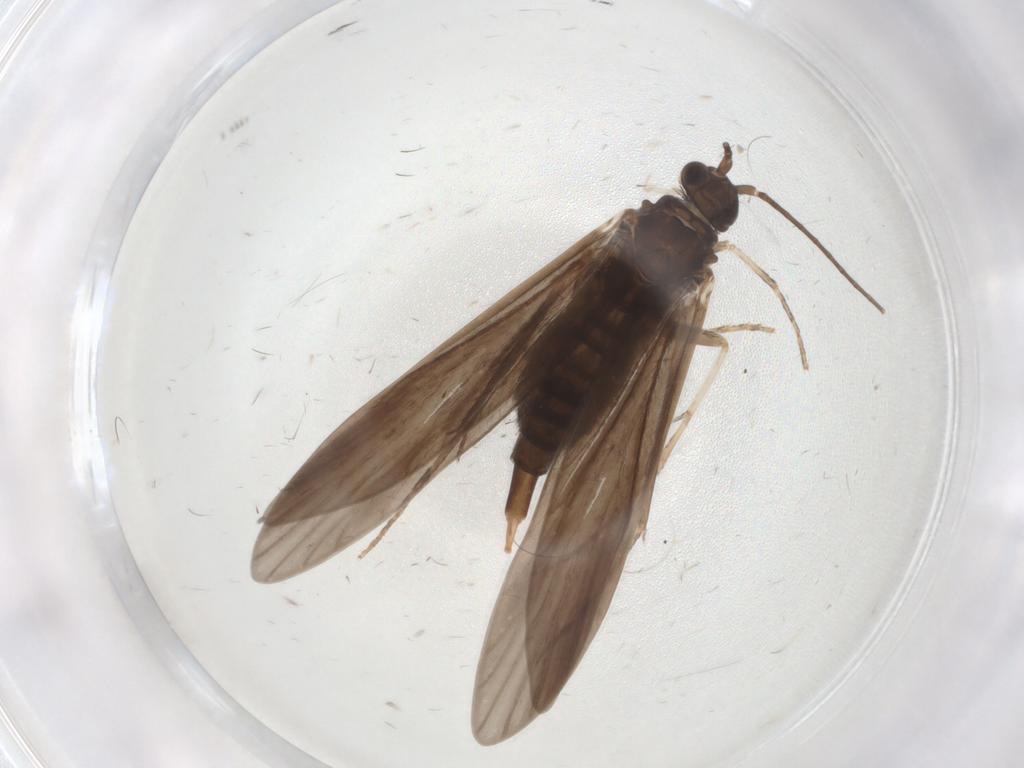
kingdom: Animalia
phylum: Arthropoda
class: Insecta
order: Trichoptera
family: Xiphocentronidae
